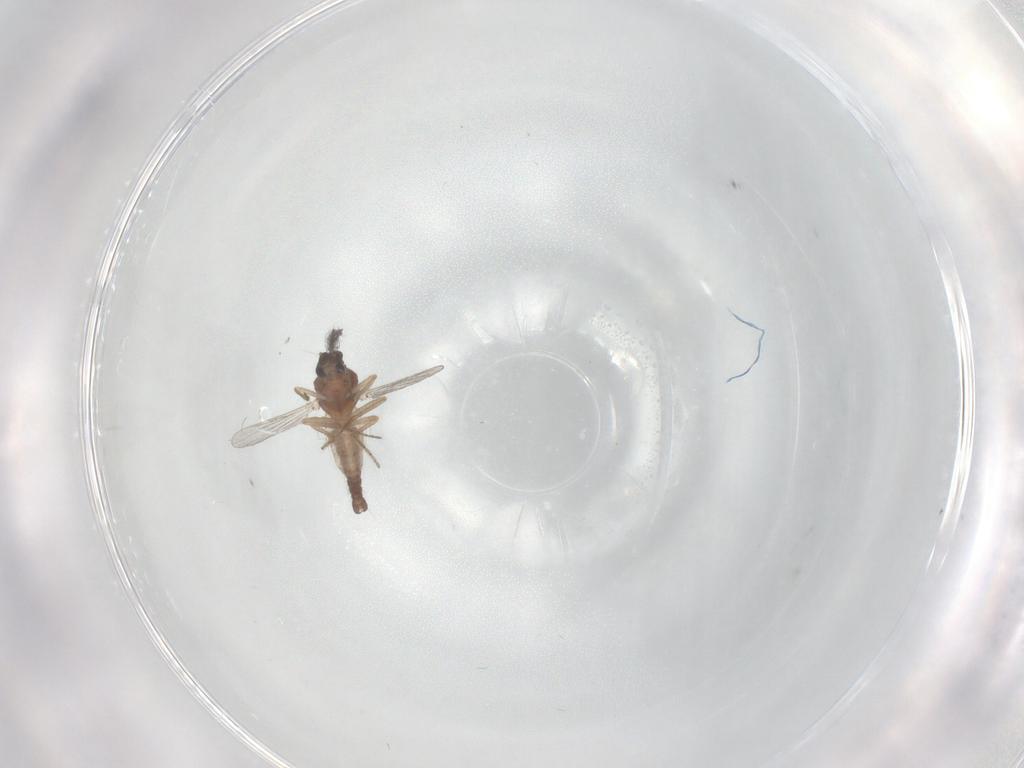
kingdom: Animalia
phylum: Arthropoda
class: Insecta
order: Diptera
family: Ceratopogonidae
